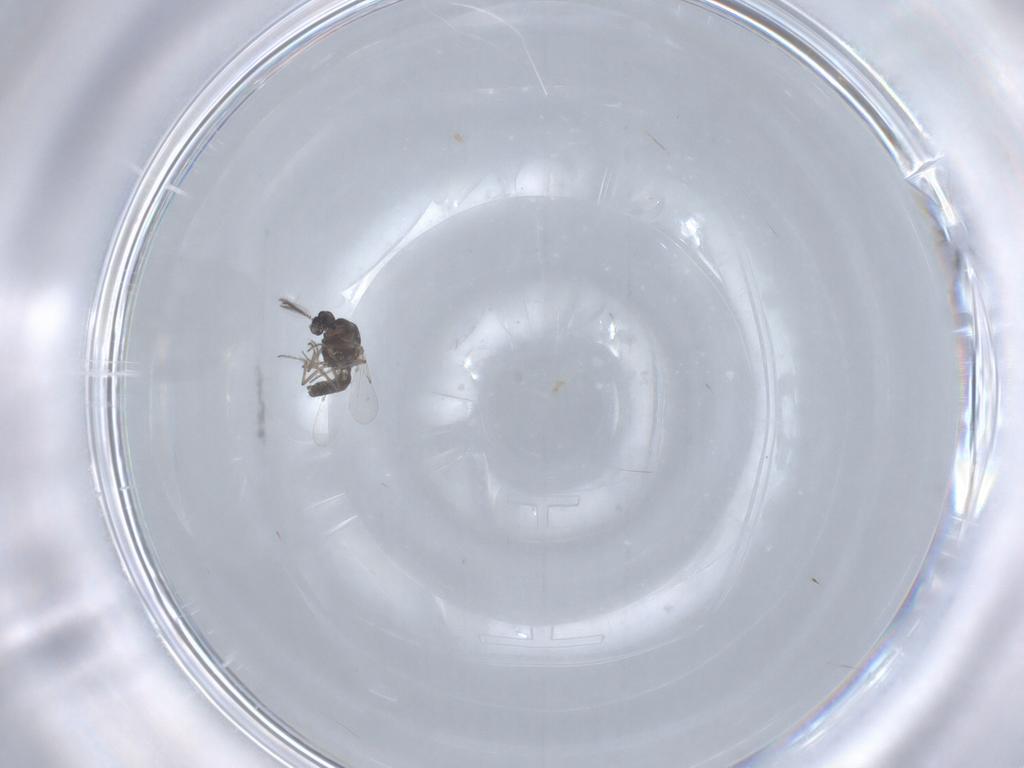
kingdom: Animalia
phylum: Arthropoda
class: Insecta
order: Diptera
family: Ceratopogonidae
